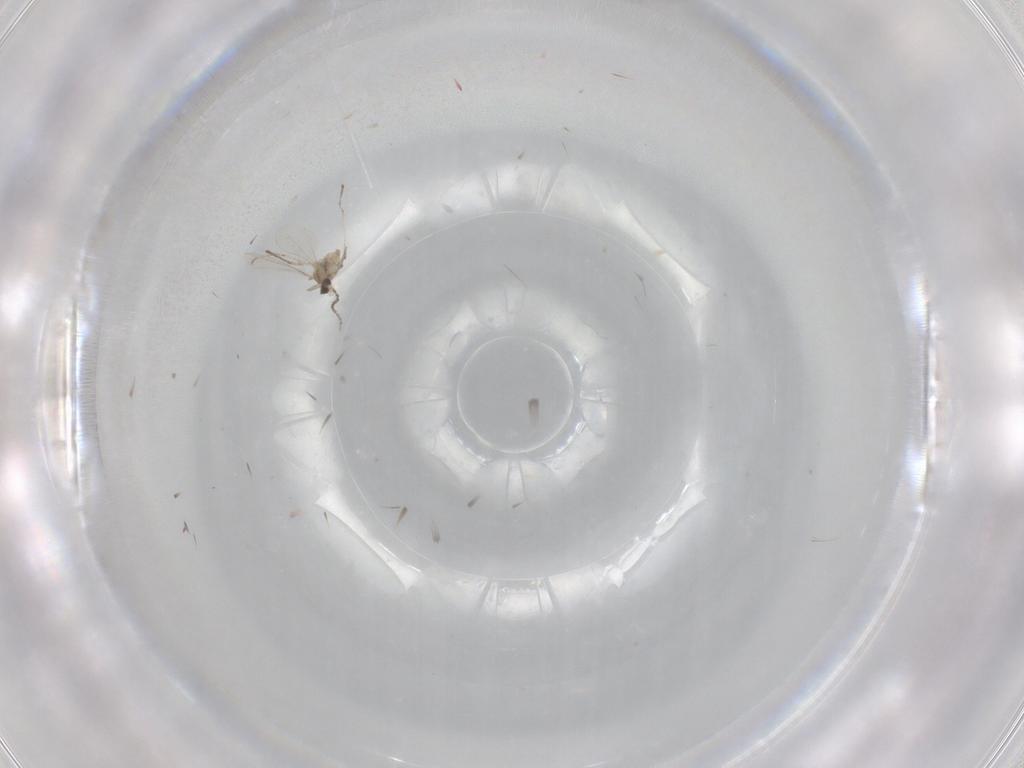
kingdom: Animalia
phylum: Arthropoda
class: Insecta
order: Diptera
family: Cecidomyiidae
